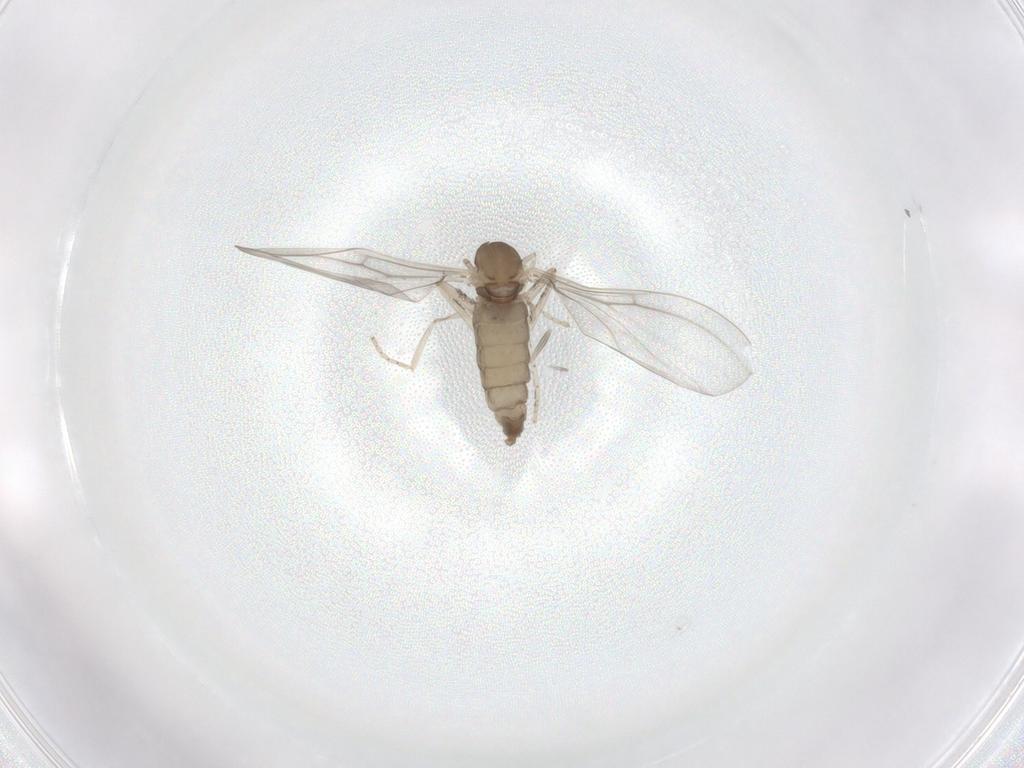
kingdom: Animalia
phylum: Arthropoda
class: Insecta
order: Diptera
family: Cecidomyiidae
